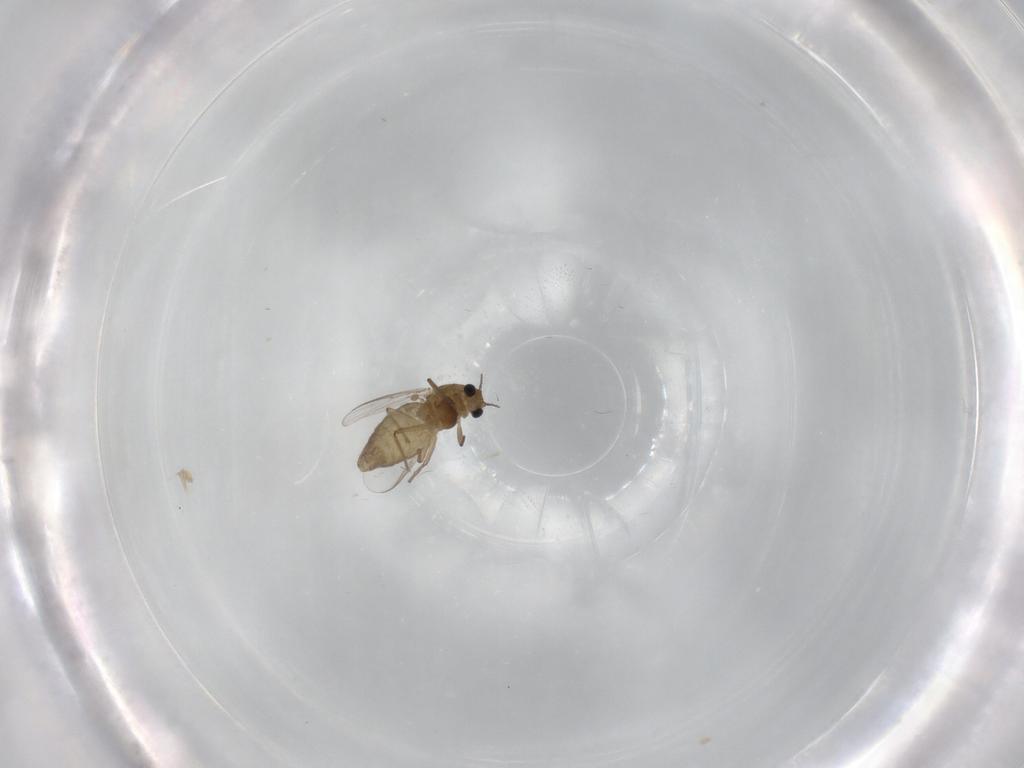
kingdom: Animalia
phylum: Arthropoda
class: Insecta
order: Diptera
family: Chironomidae
